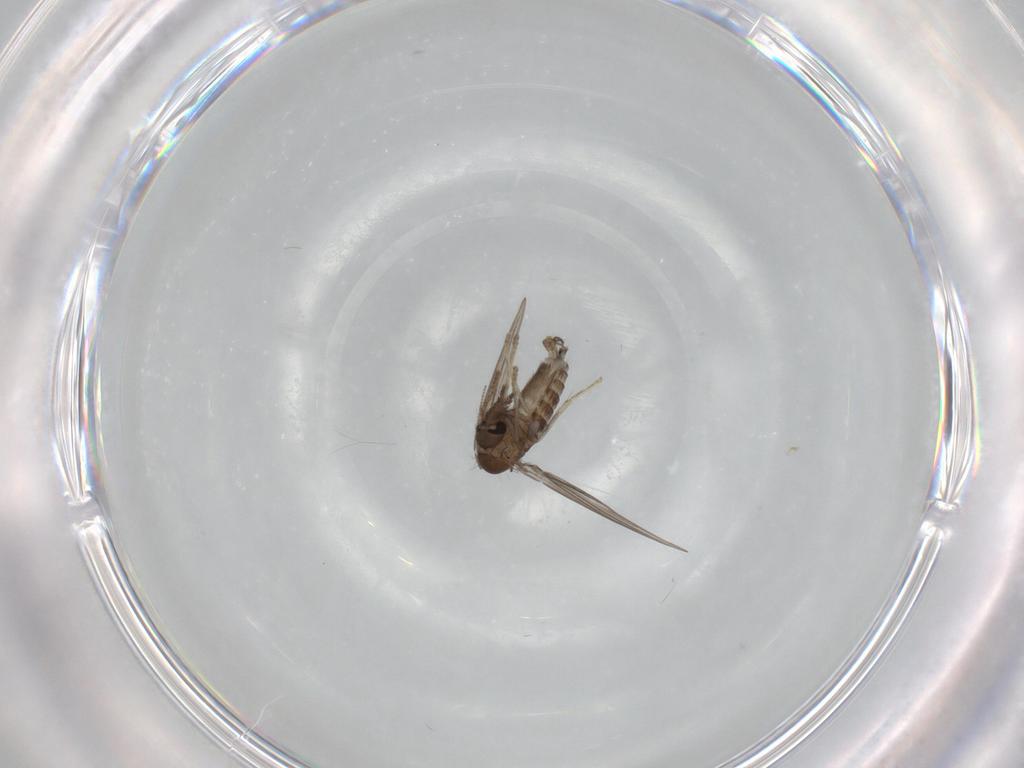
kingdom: Animalia
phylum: Arthropoda
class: Insecta
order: Diptera
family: Psychodidae
